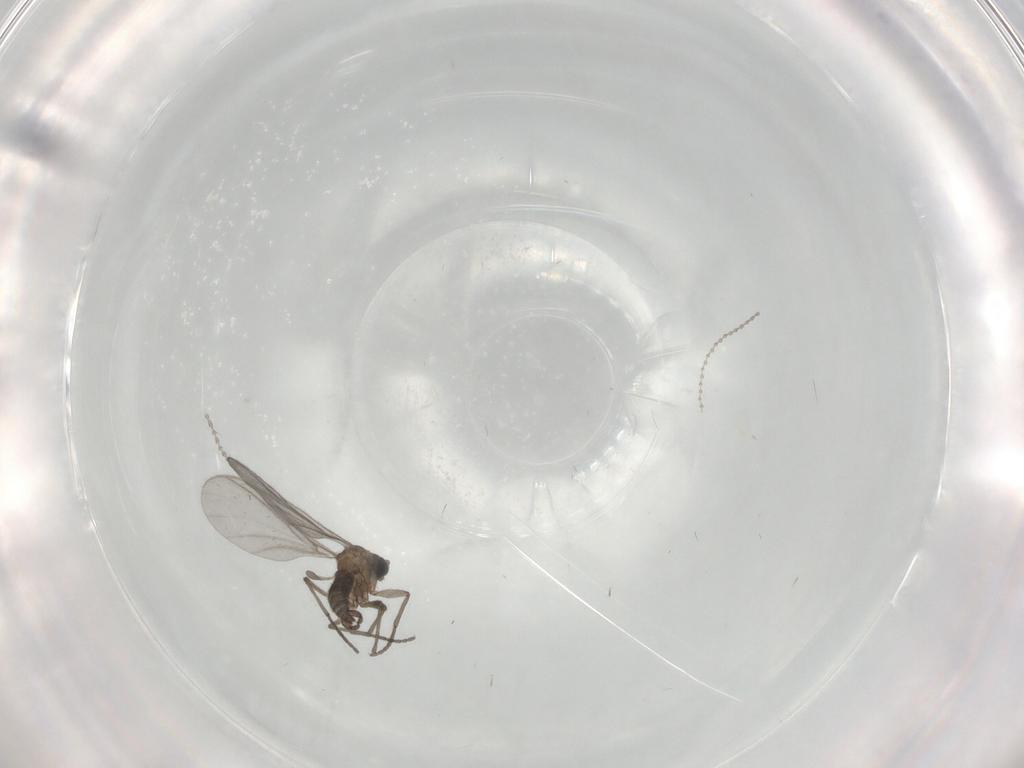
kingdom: Animalia
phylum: Arthropoda
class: Insecta
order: Diptera
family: Sciaridae
